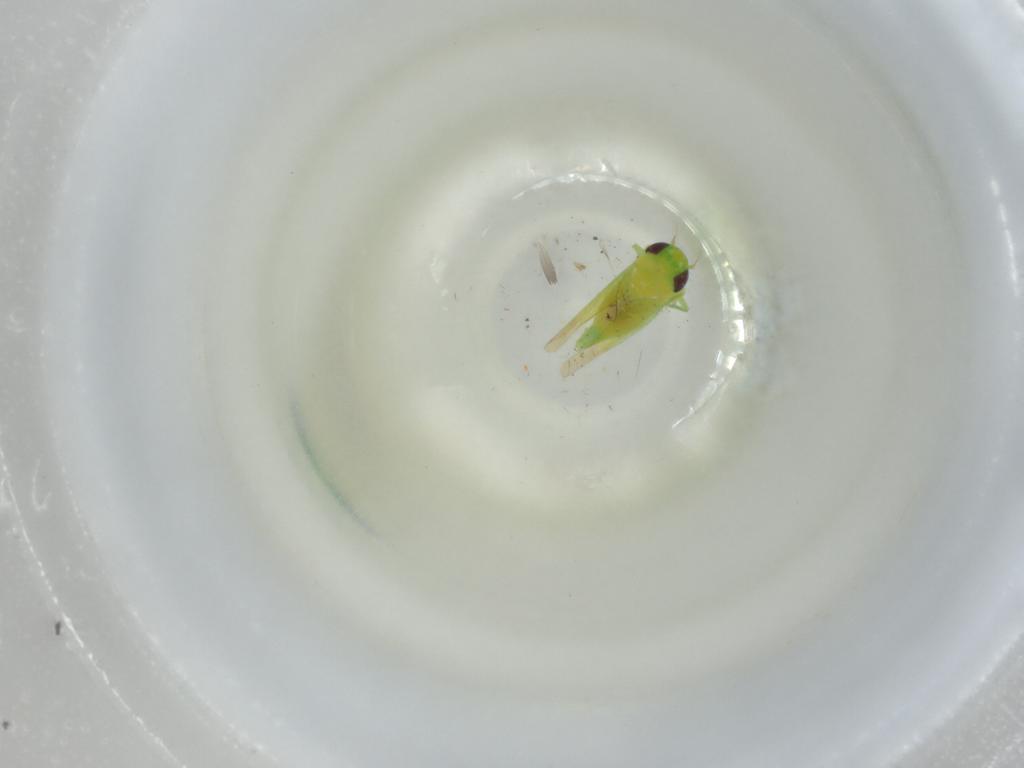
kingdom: Animalia
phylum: Arthropoda
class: Insecta
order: Hemiptera
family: Cicadellidae
